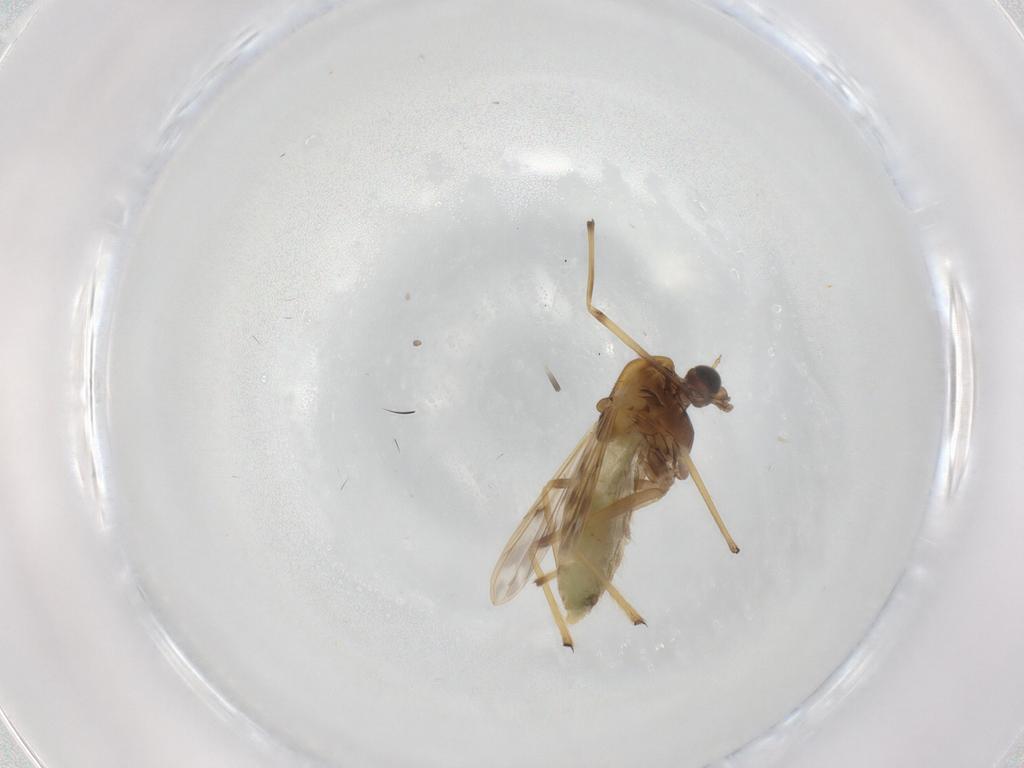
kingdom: Animalia
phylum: Arthropoda
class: Insecta
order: Diptera
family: Chironomidae
